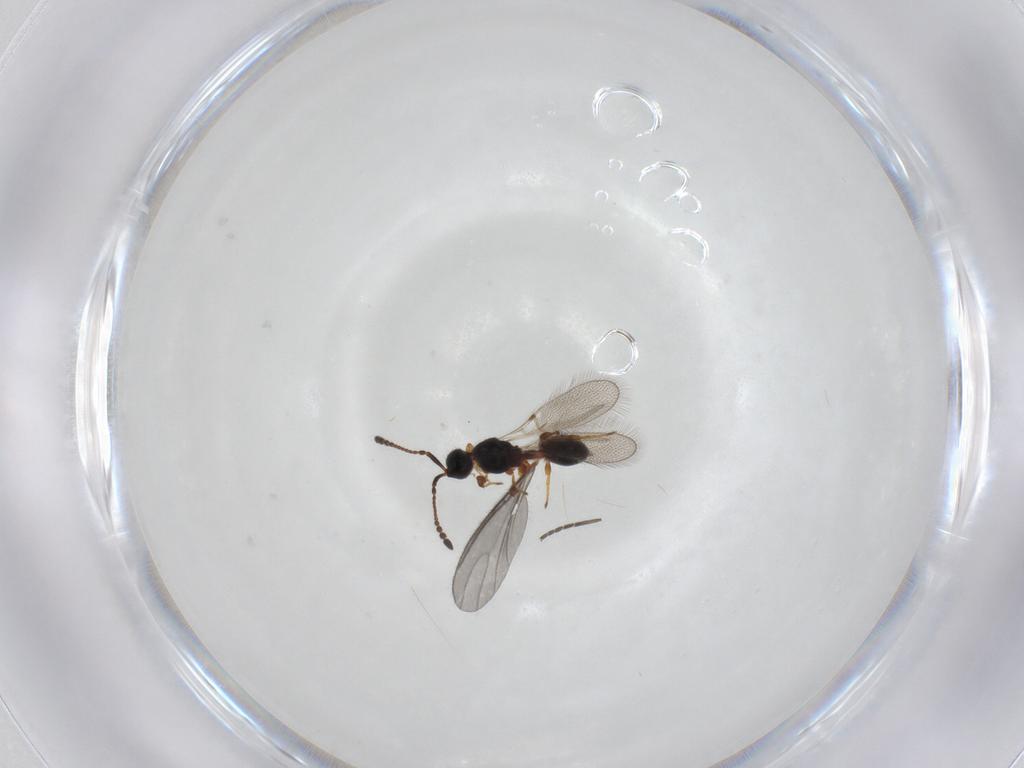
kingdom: Animalia
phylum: Arthropoda
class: Insecta
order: Hymenoptera
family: Diapriidae
